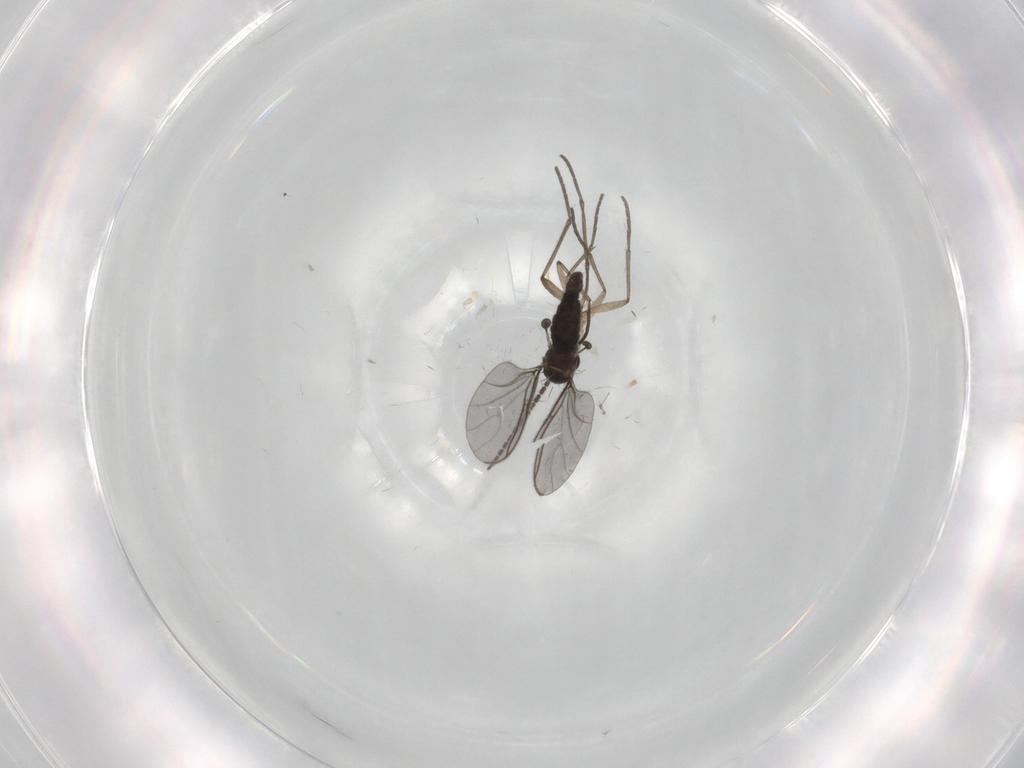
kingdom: Animalia
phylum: Arthropoda
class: Insecta
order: Diptera
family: Sciaridae
